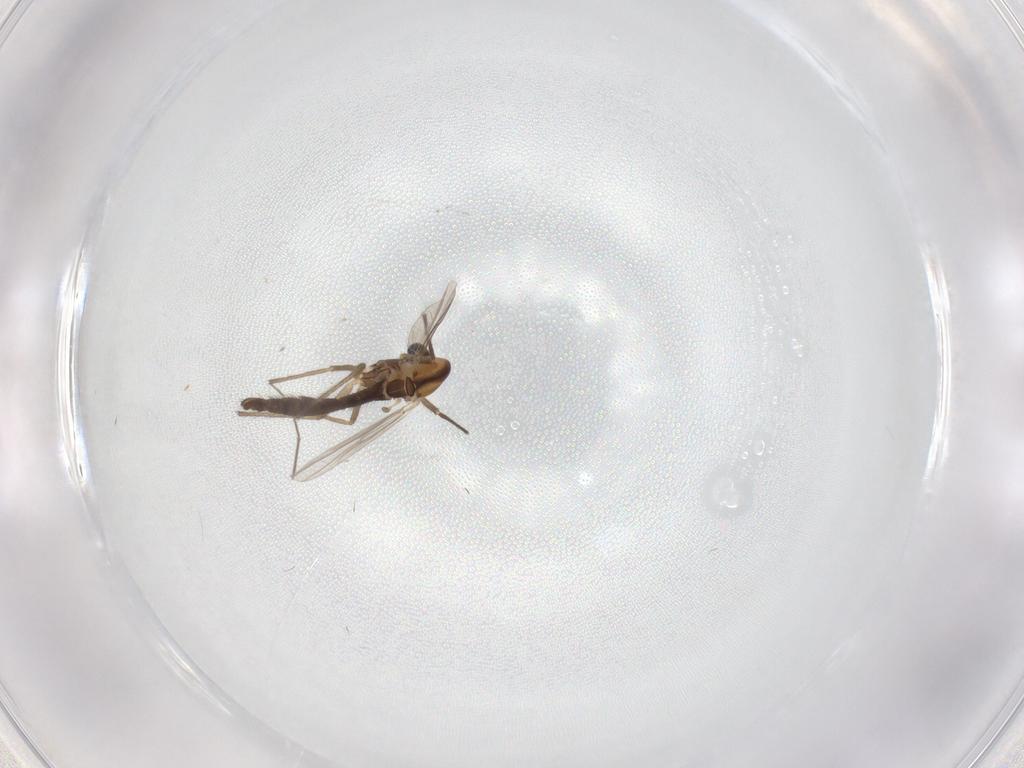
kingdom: Animalia
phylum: Arthropoda
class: Insecta
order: Diptera
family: Chironomidae
